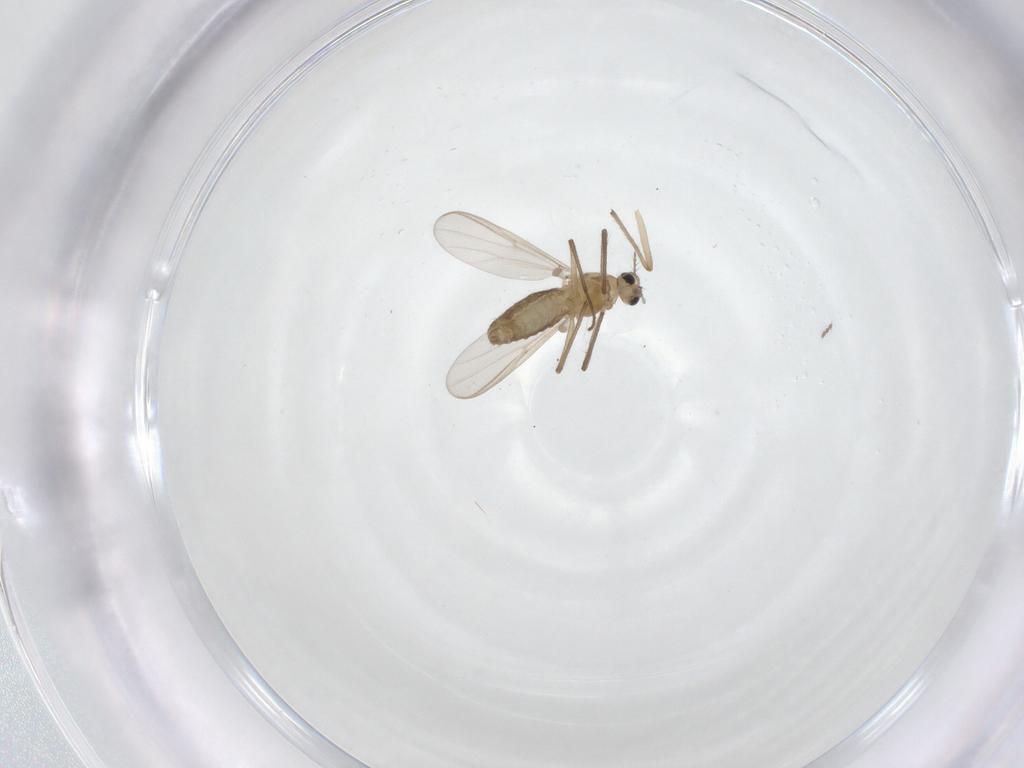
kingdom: Animalia
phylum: Arthropoda
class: Insecta
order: Diptera
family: Chironomidae
